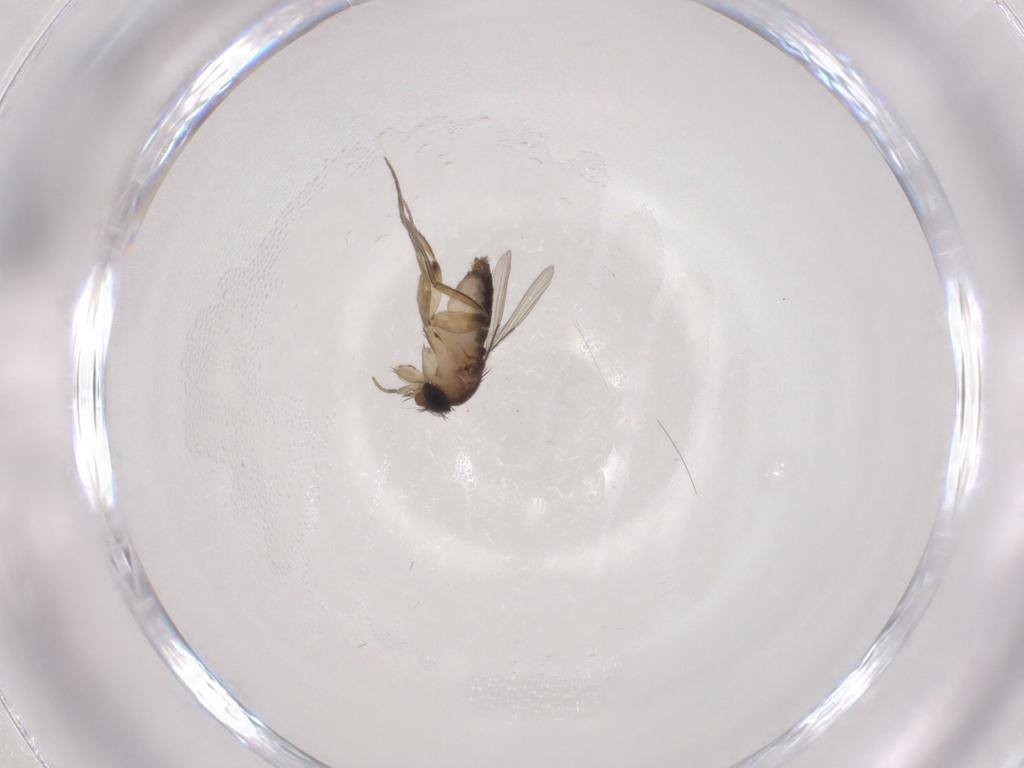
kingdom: Animalia
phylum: Arthropoda
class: Insecta
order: Diptera
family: Phoridae
